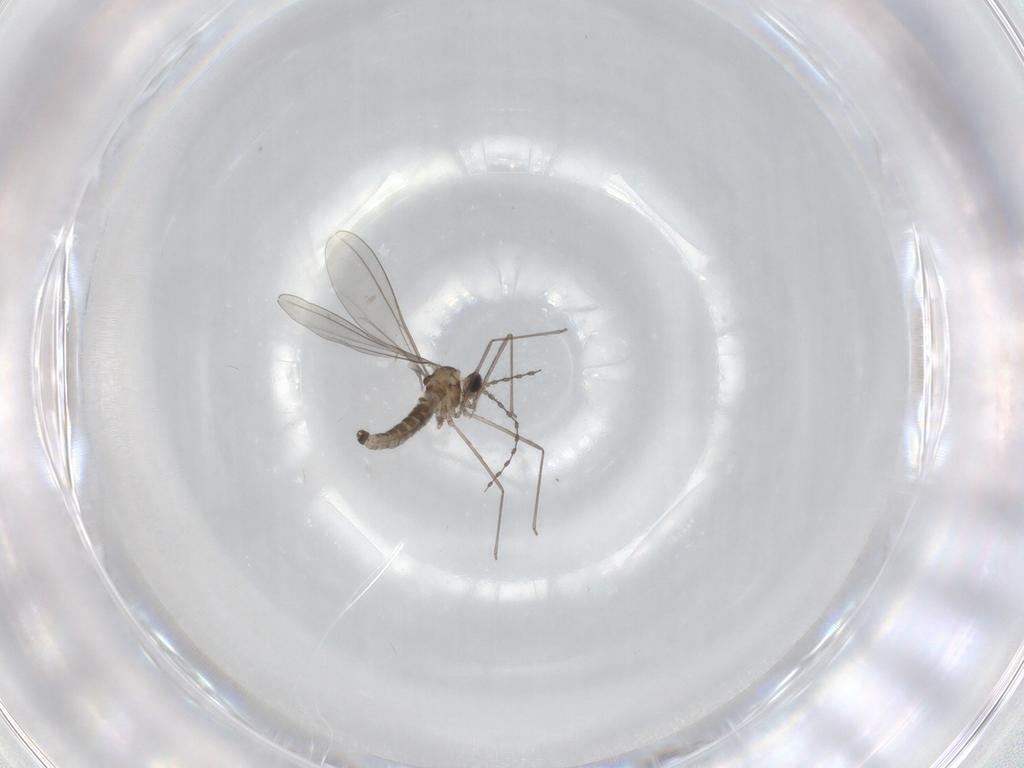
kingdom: Animalia
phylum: Arthropoda
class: Insecta
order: Diptera
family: Cecidomyiidae
